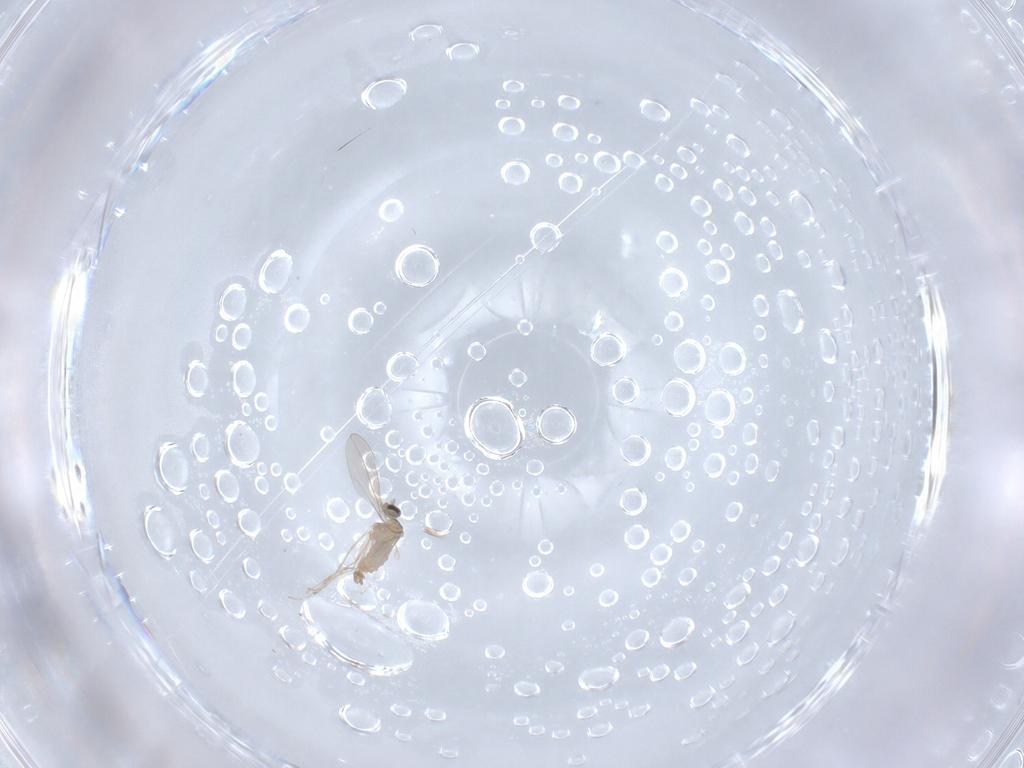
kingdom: Animalia
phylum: Arthropoda
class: Insecta
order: Diptera
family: Cecidomyiidae
